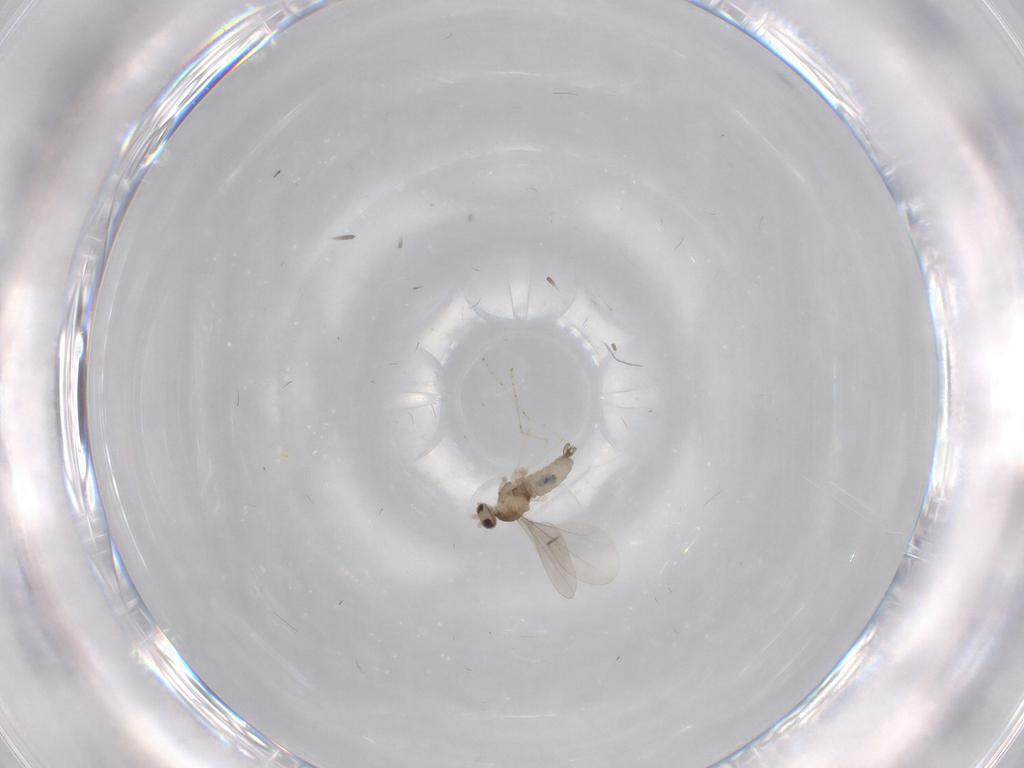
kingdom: Animalia
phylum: Arthropoda
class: Insecta
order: Diptera
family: Cecidomyiidae
